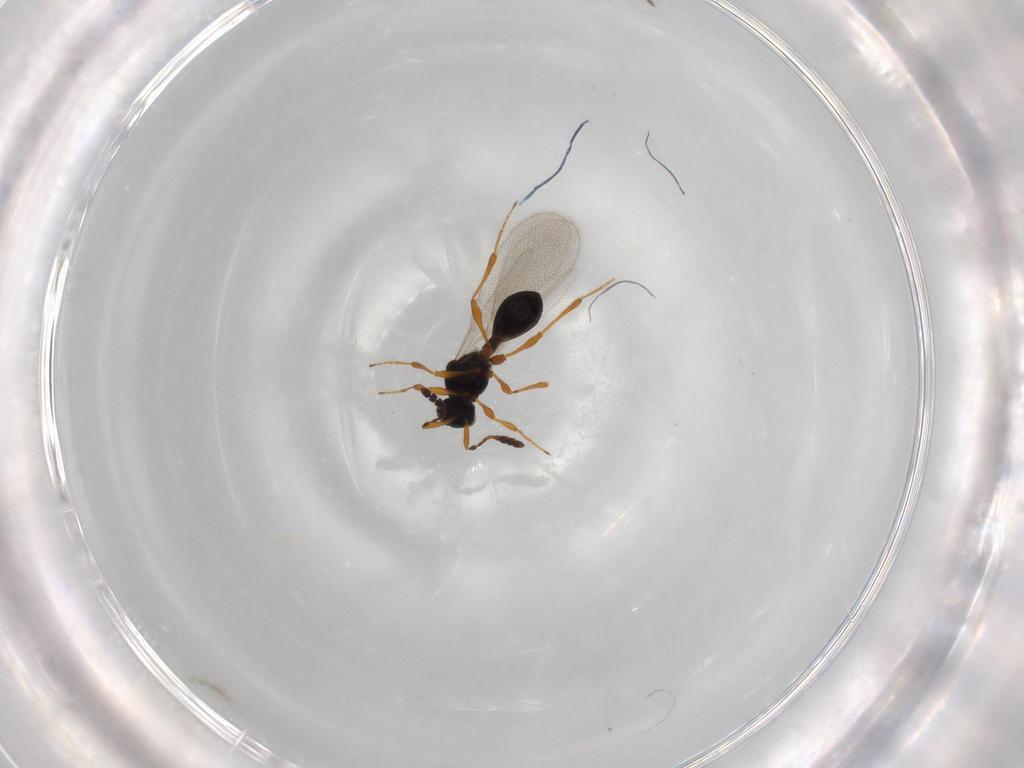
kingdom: Animalia
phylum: Arthropoda
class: Insecta
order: Hymenoptera
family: Platygastridae
